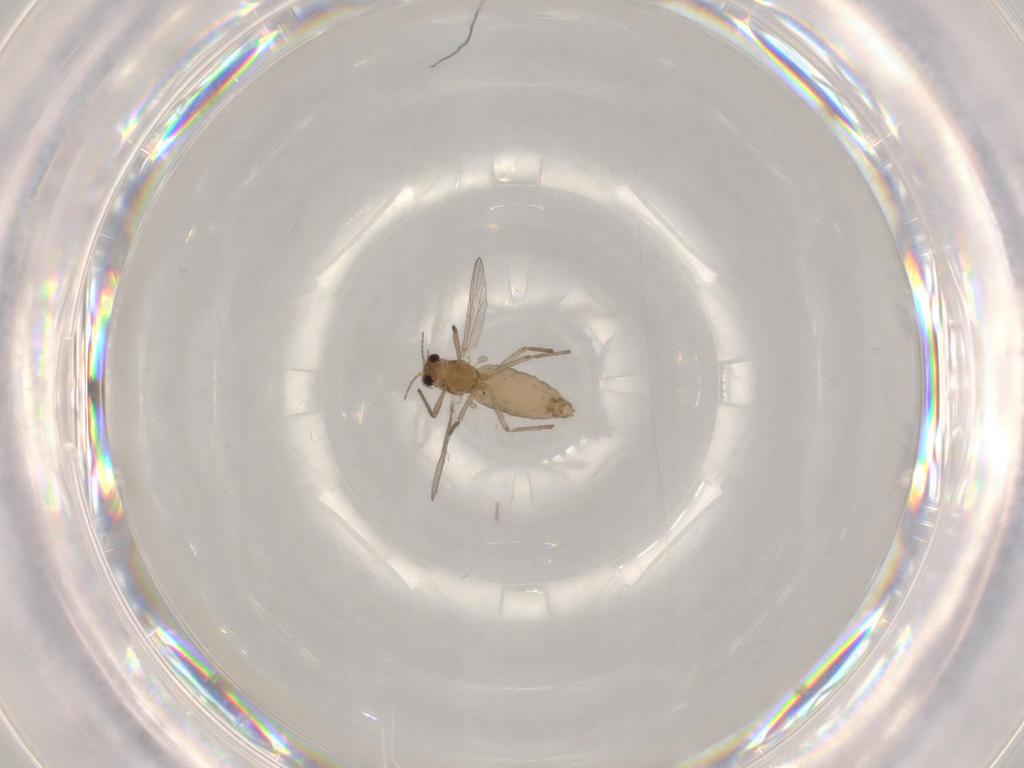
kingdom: Animalia
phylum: Arthropoda
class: Insecta
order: Diptera
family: Chironomidae
